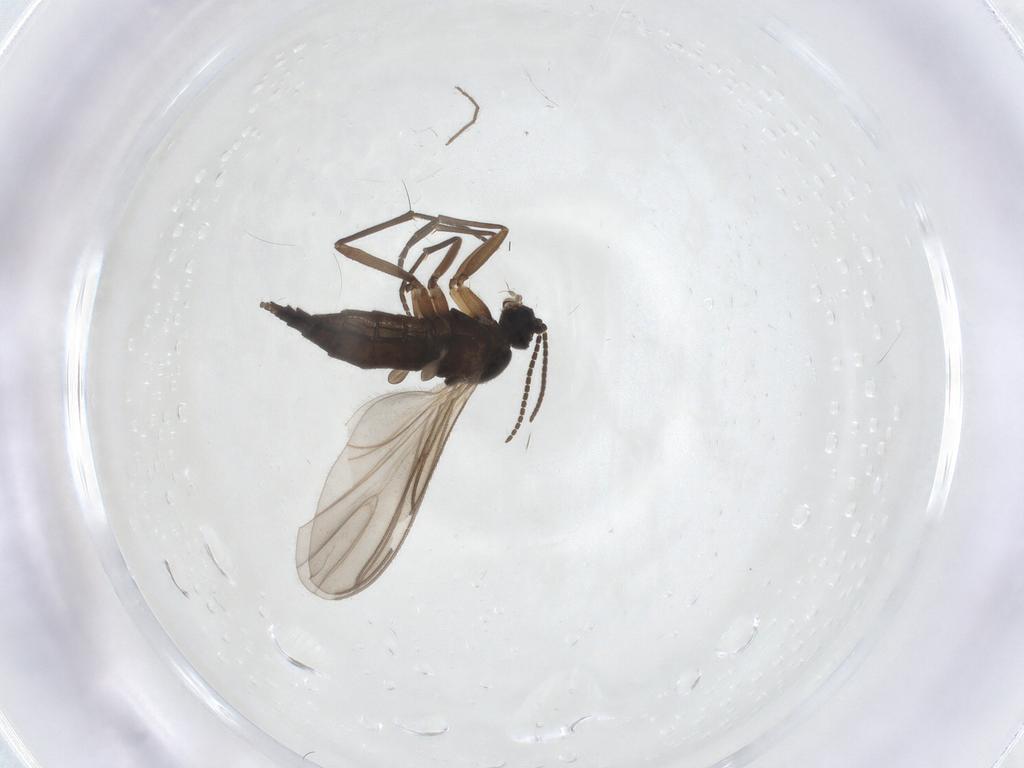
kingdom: Animalia
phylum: Arthropoda
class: Insecta
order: Diptera
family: Sciaridae
